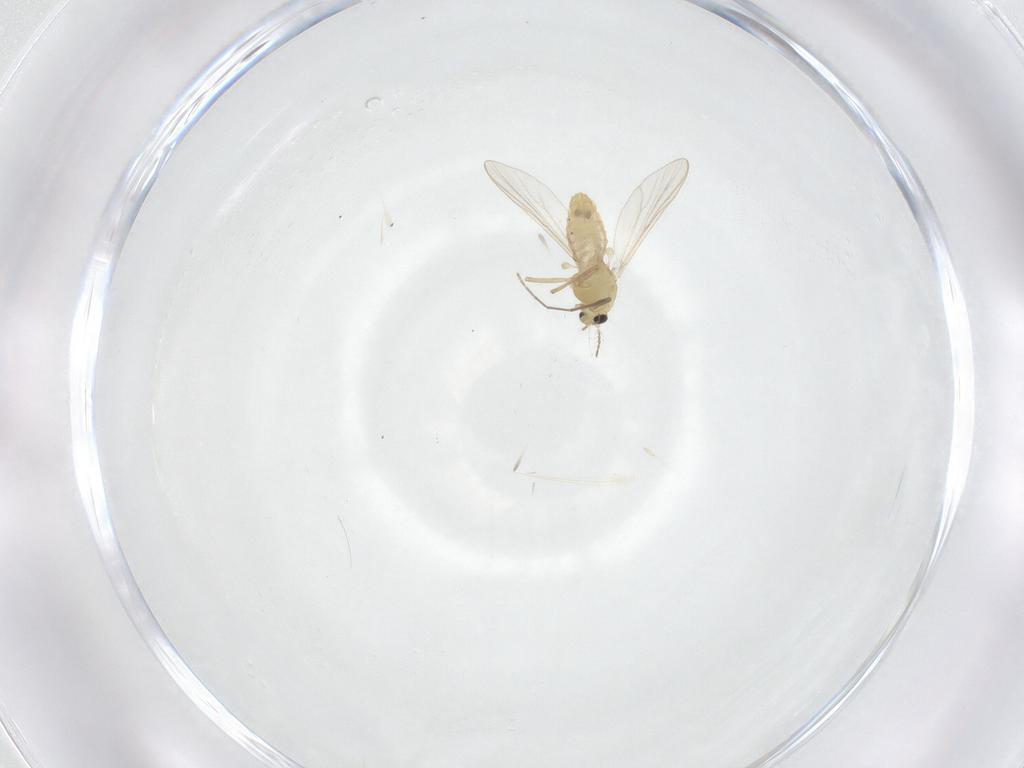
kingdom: Animalia
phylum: Arthropoda
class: Insecta
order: Diptera
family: Chironomidae
